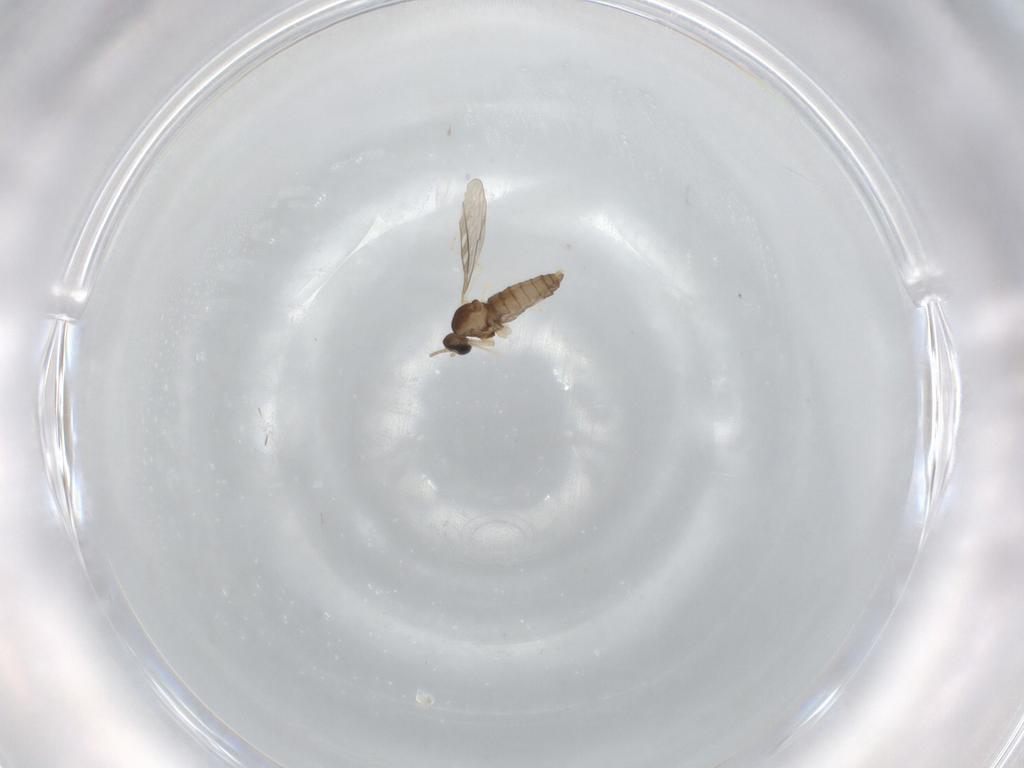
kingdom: Animalia
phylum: Arthropoda
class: Insecta
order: Diptera
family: Cecidomyiidae
